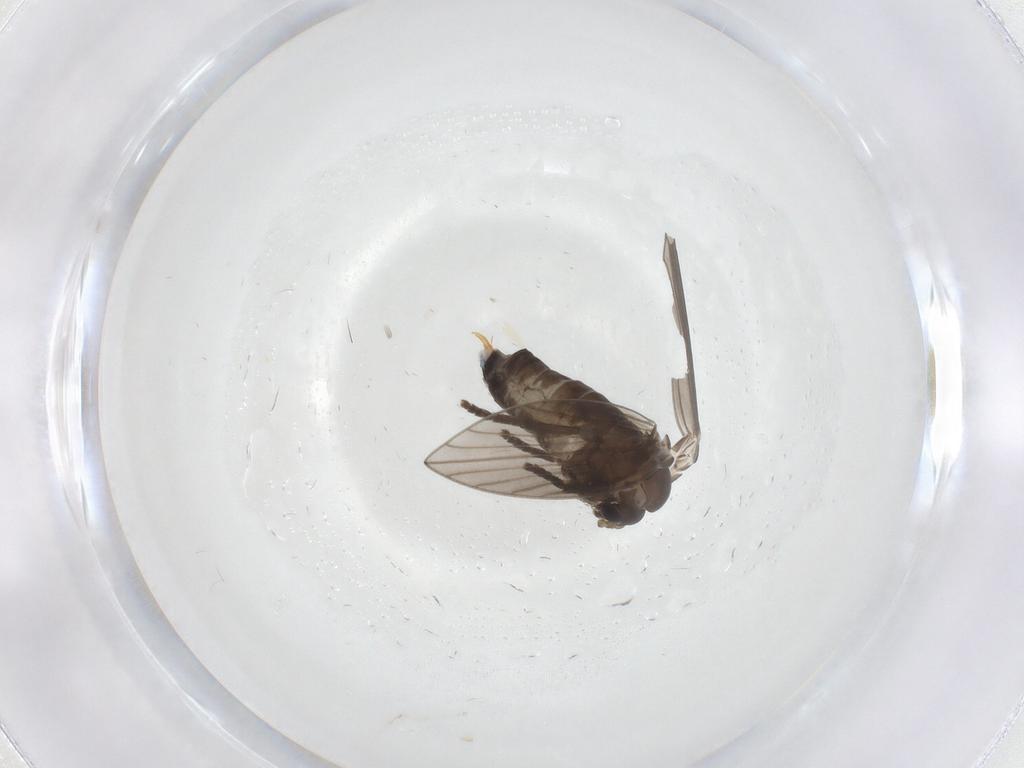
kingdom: Animalia
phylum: Arthropoda
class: Insecta
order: Diptera
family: Psychodidae
